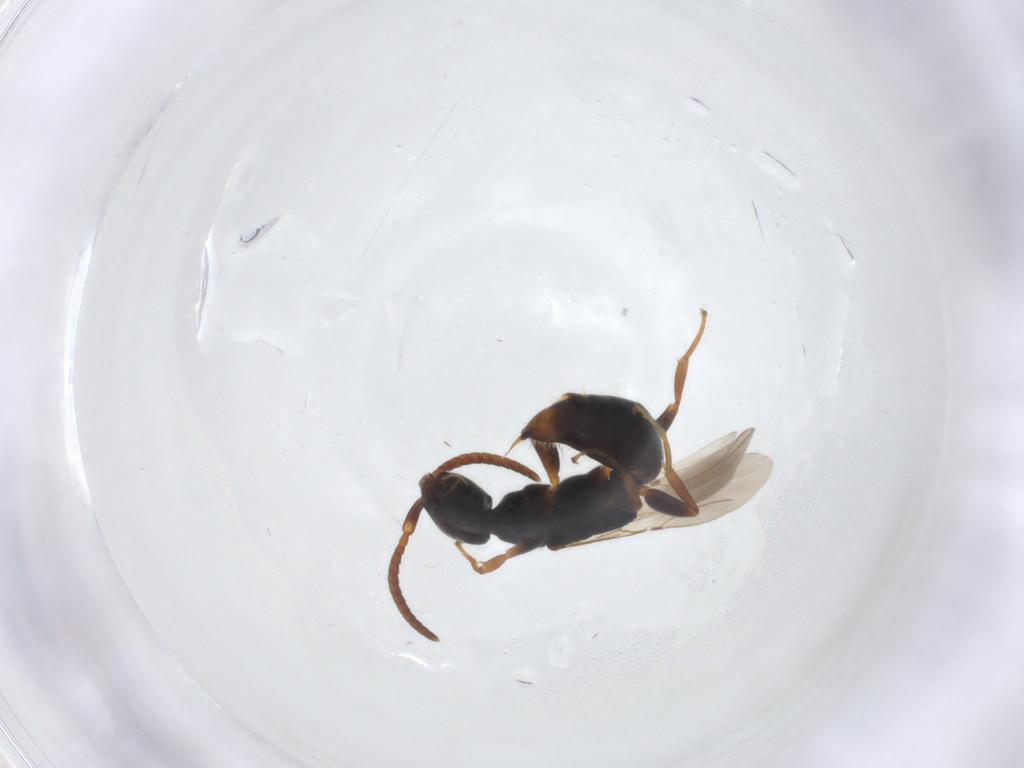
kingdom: Animalia
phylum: Arthropoda
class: Insecta
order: Hymenoptera
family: Bethylidae
